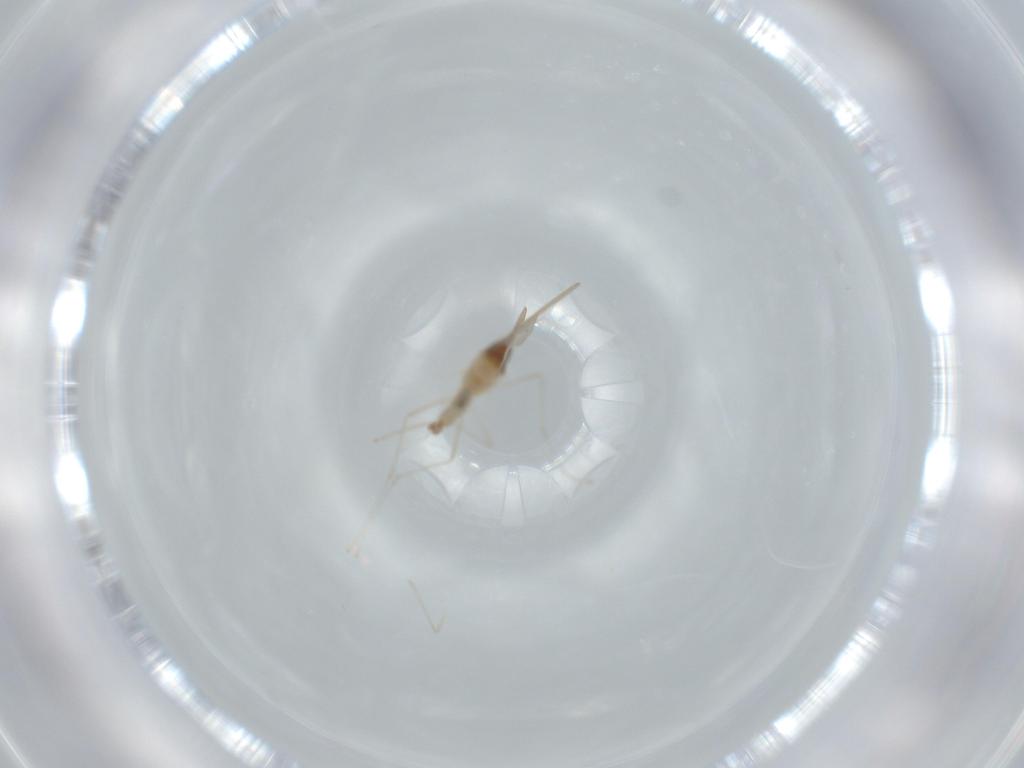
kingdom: Animalia
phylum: Arthropoda
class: Insecta
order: Diptera
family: Cecidomyiidae
